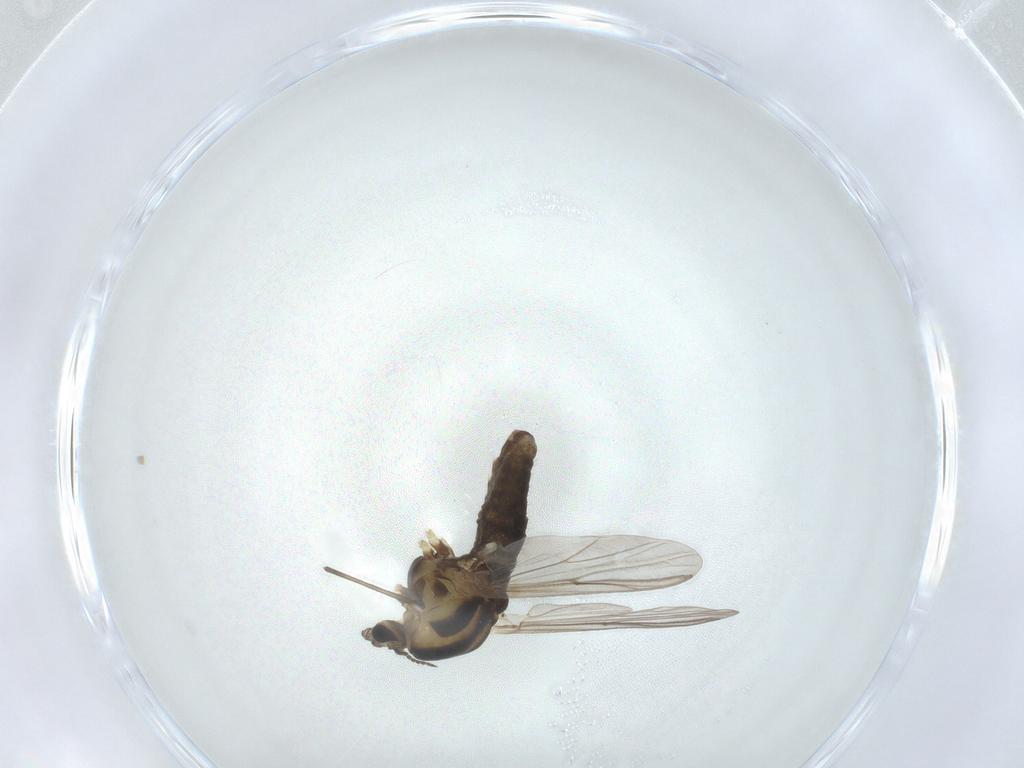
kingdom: Animalia
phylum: Arthropoda
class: Insecta
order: Diptera
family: Chironomidae
